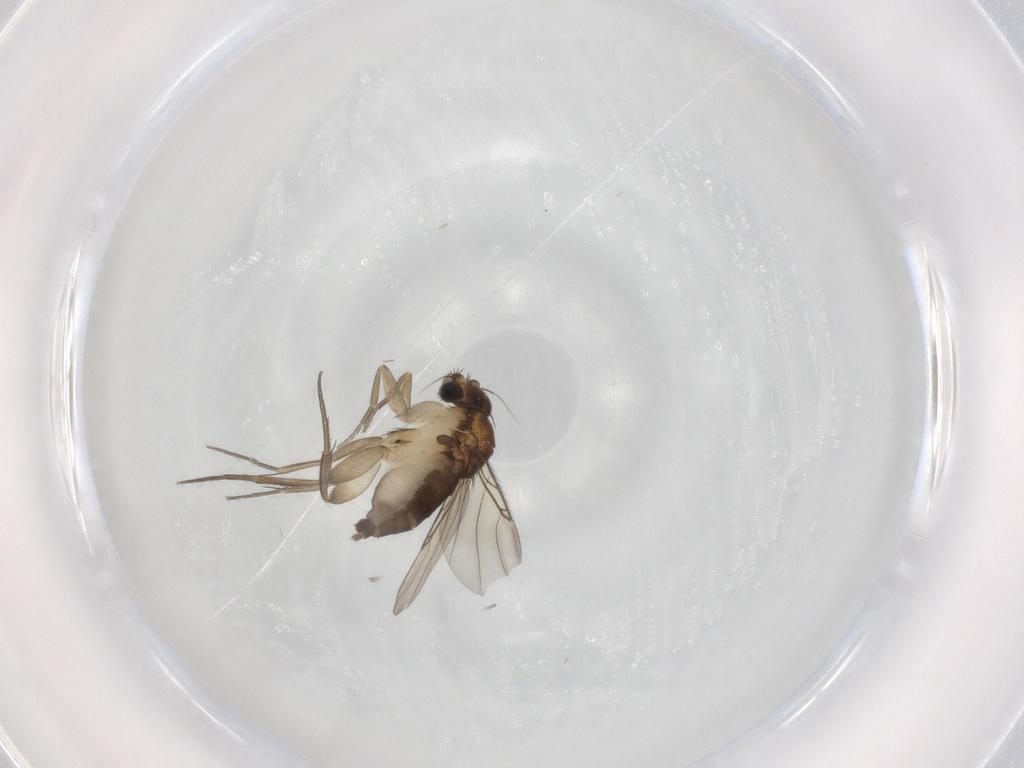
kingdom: Animalia
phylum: Arthropoda
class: Insecta
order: Diptera
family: Phoridae
